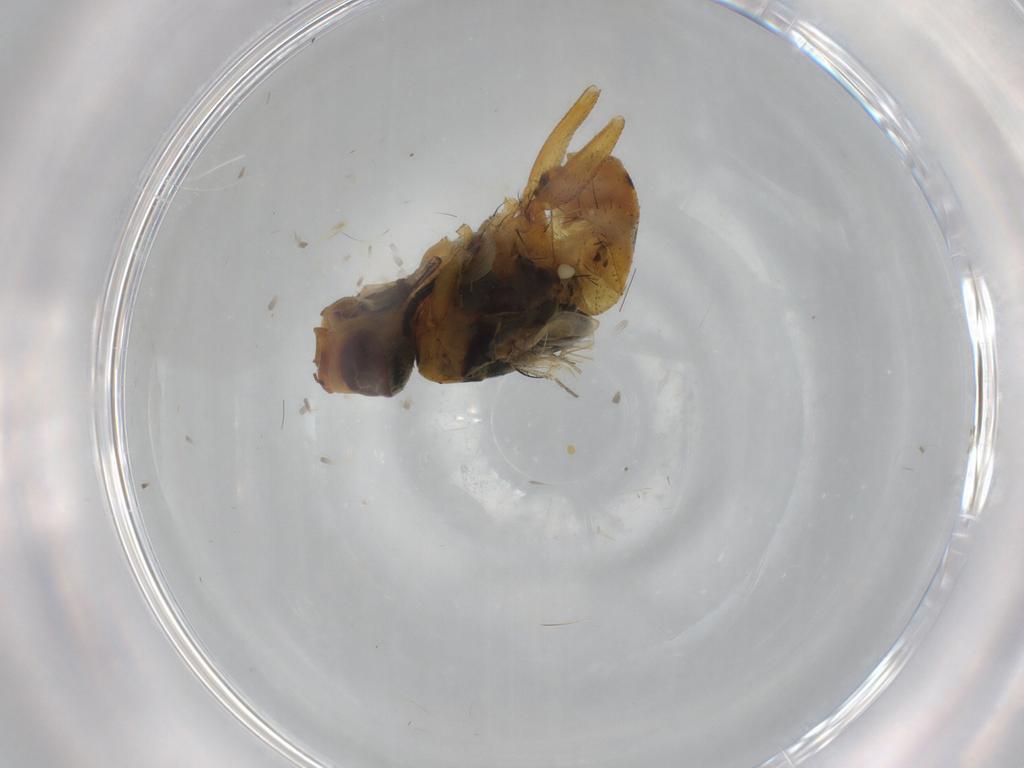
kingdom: Animalia
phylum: Arthropoda
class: Insecta
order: Diptera
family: Muscidae
